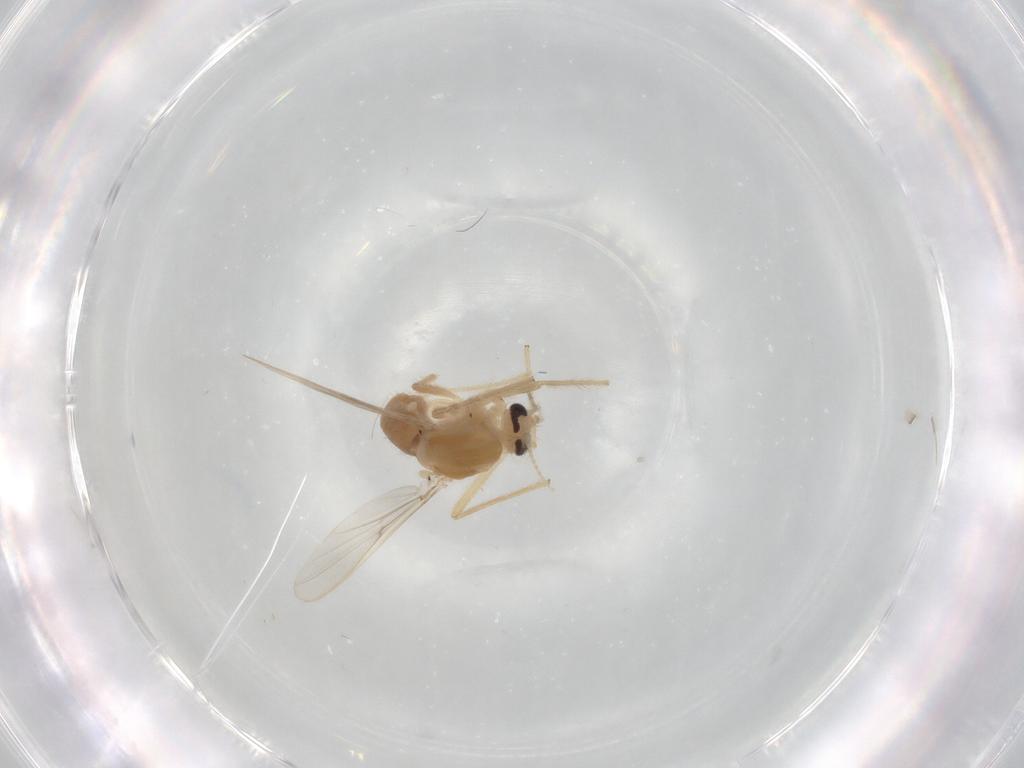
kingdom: Animalia
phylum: Arthropoda
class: Insecta
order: Diptera
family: Chironomidae
